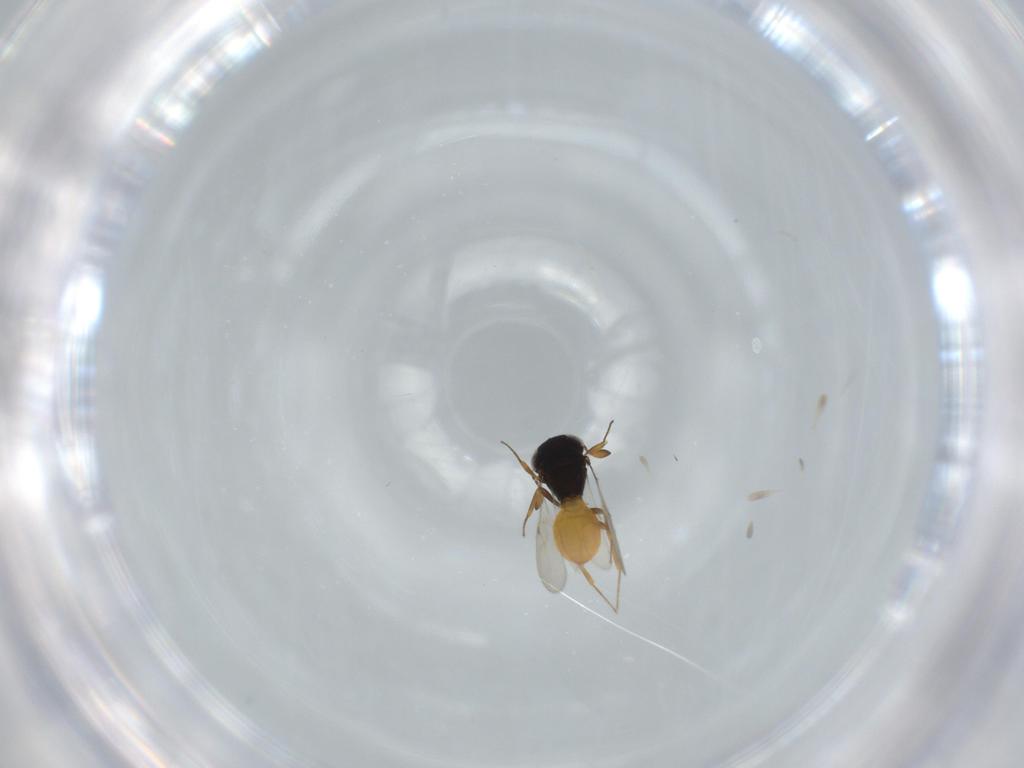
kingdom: Animalia
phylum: Arthropoda
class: Insecta
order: Hymenoptera
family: Scelionidae
